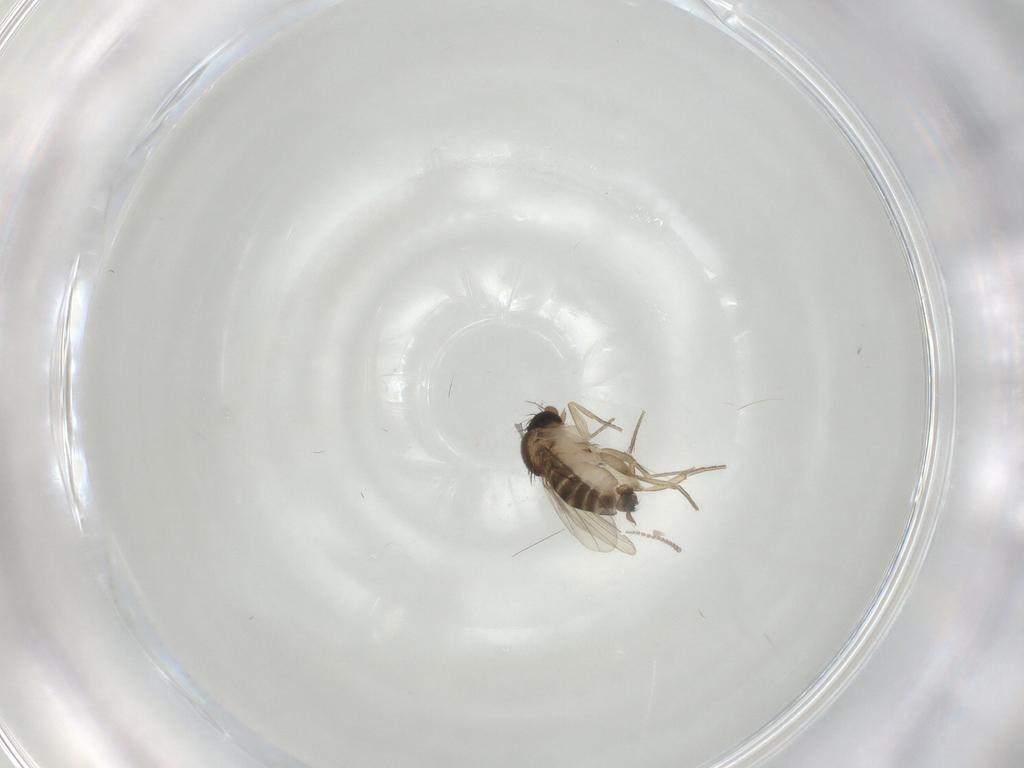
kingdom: Animalia
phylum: Arthropoda
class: Insecta
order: Diptera
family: Cecidomyiidae
